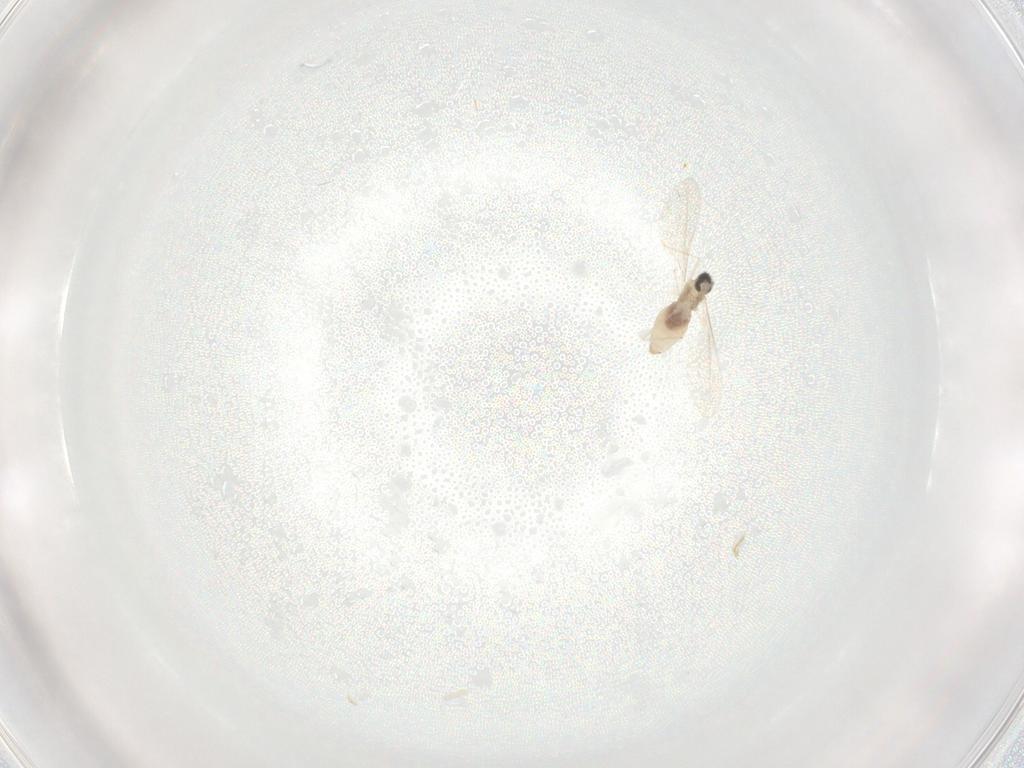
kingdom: Animalia
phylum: Arthropoda
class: Insecta
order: Diptera
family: Cecidomyiidae
